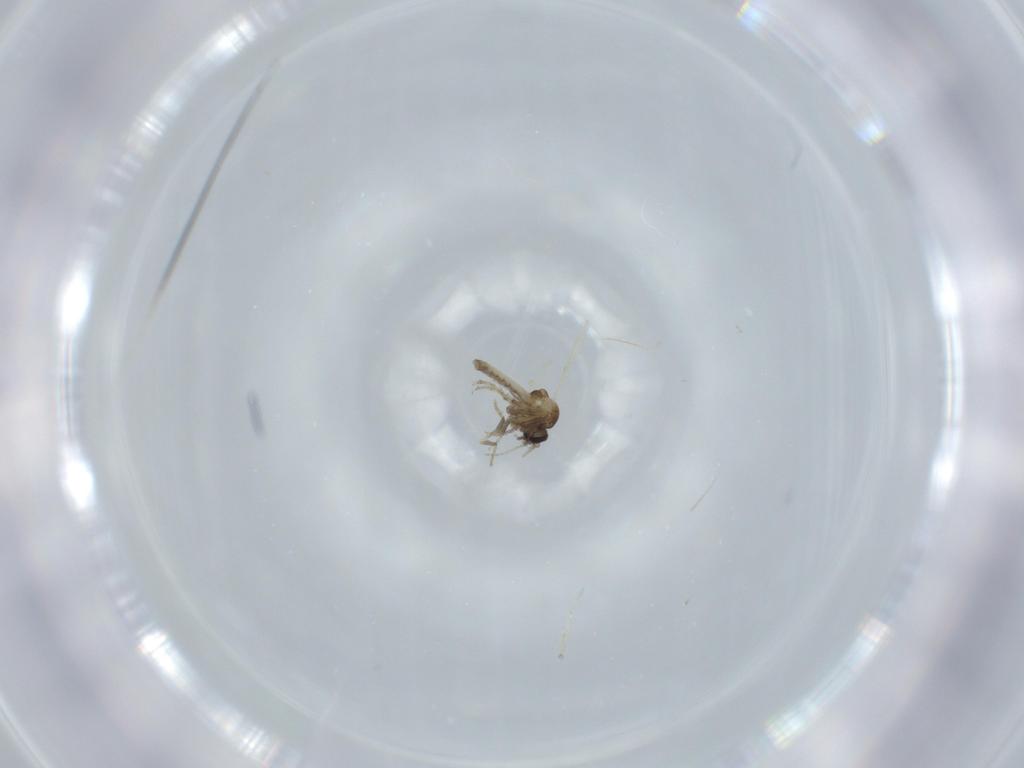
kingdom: Animalia
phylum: Arthropoda
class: Insecta
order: Diptera
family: Ceratopogonidae
